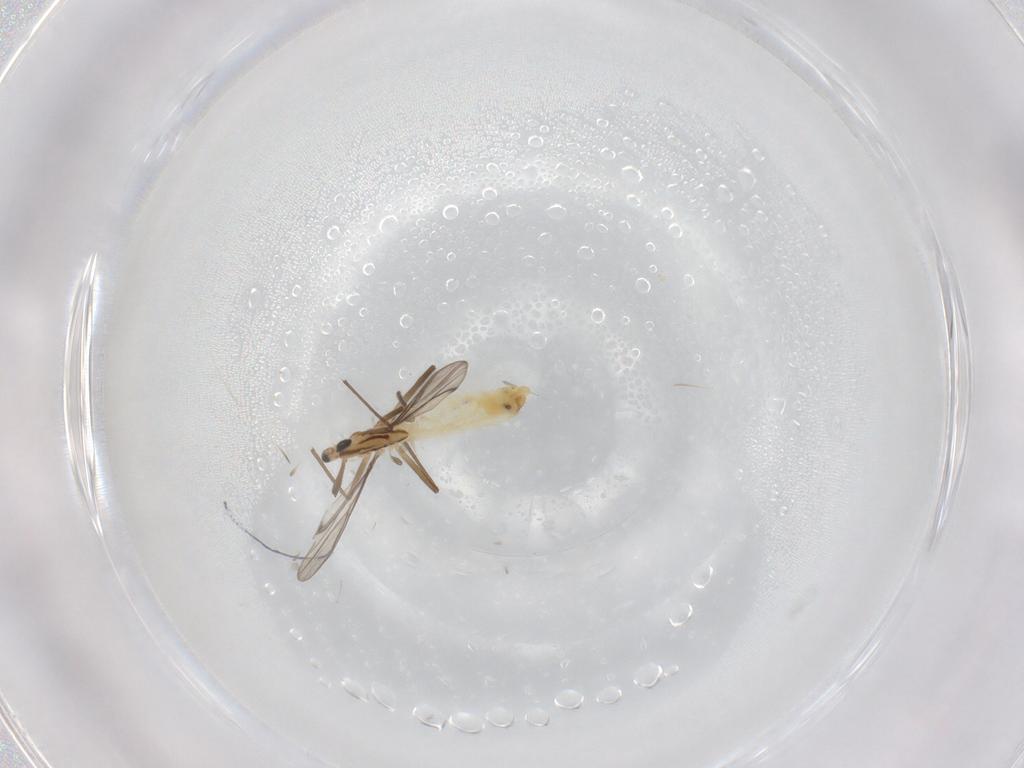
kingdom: Animalia
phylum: Arthropoda
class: Insecta
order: Diptera
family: Chironomidae
